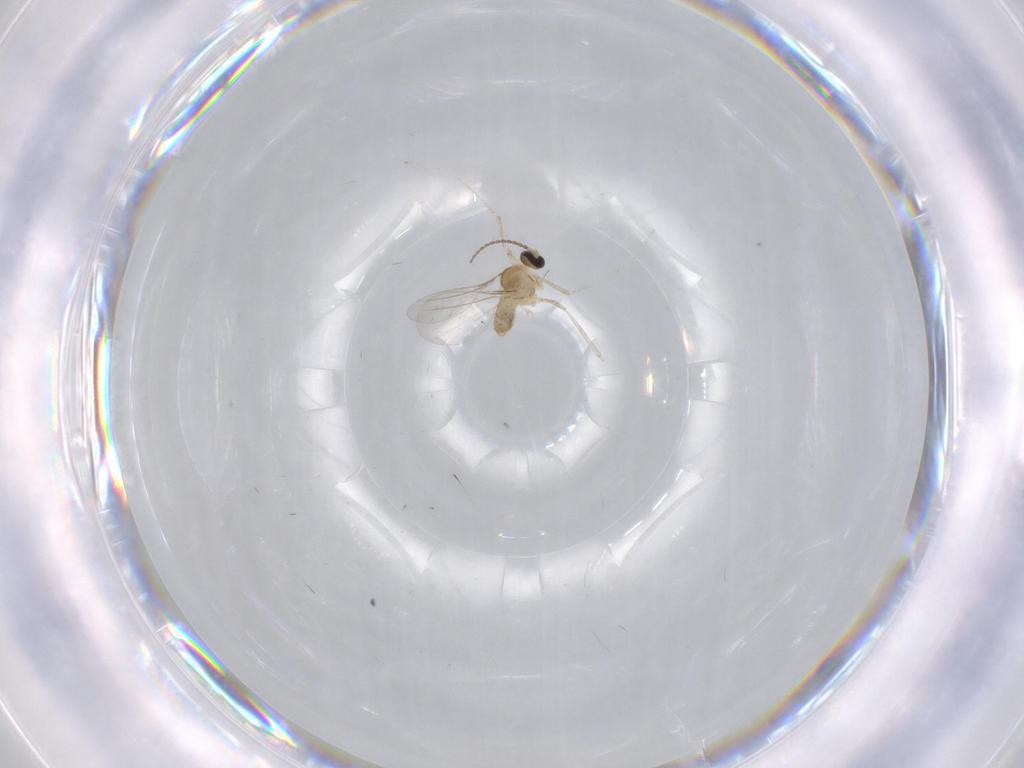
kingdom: Animalia
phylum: Arthropoda
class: Insecta
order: Diptera
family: Cecidomyiidae
